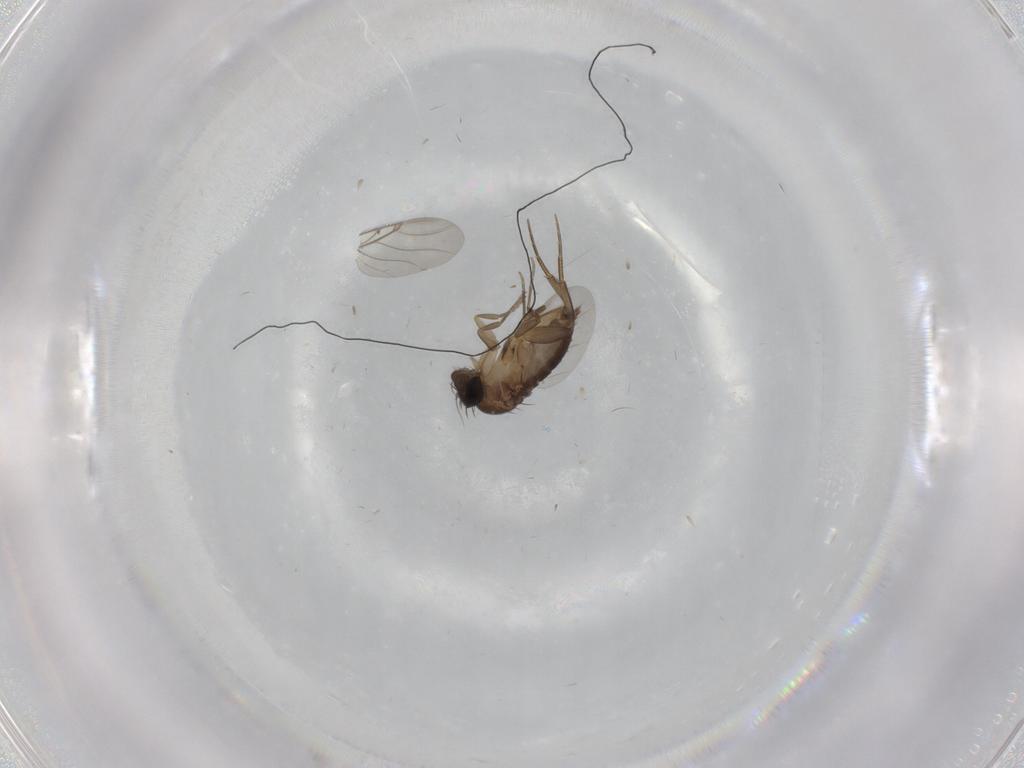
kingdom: Animalia
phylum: Arthropoda
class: Insecta
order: Diptera
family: Phoridae
